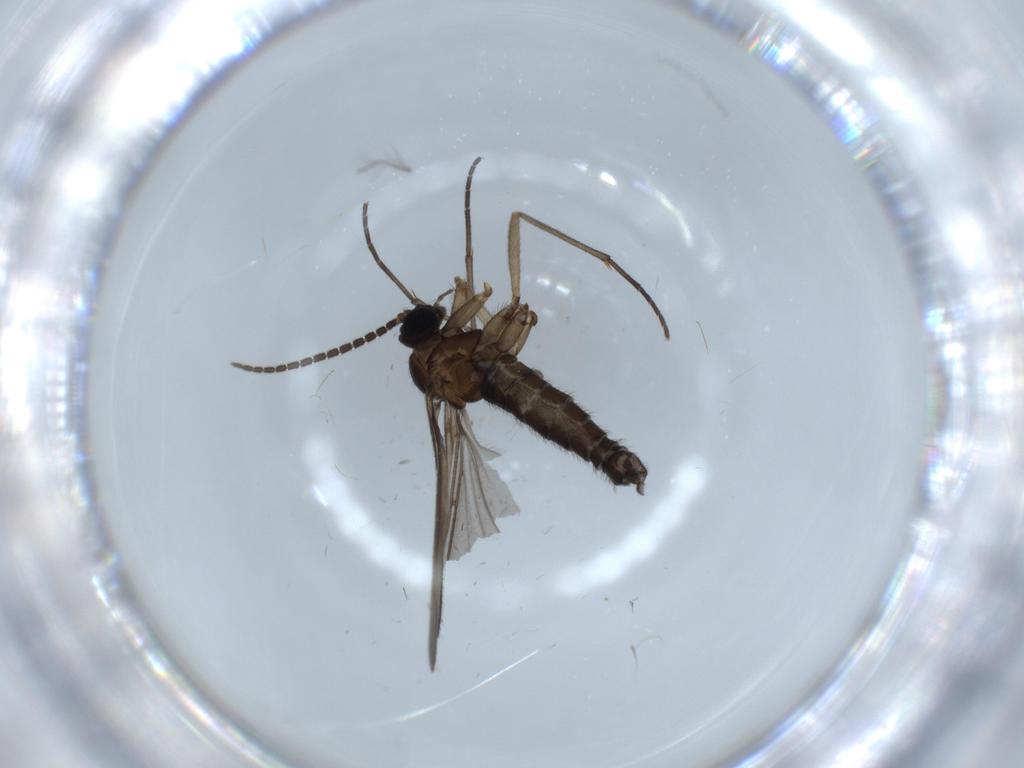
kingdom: Animalia
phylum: Arthropoda
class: Insecta
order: Diptera
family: Sciaridae
